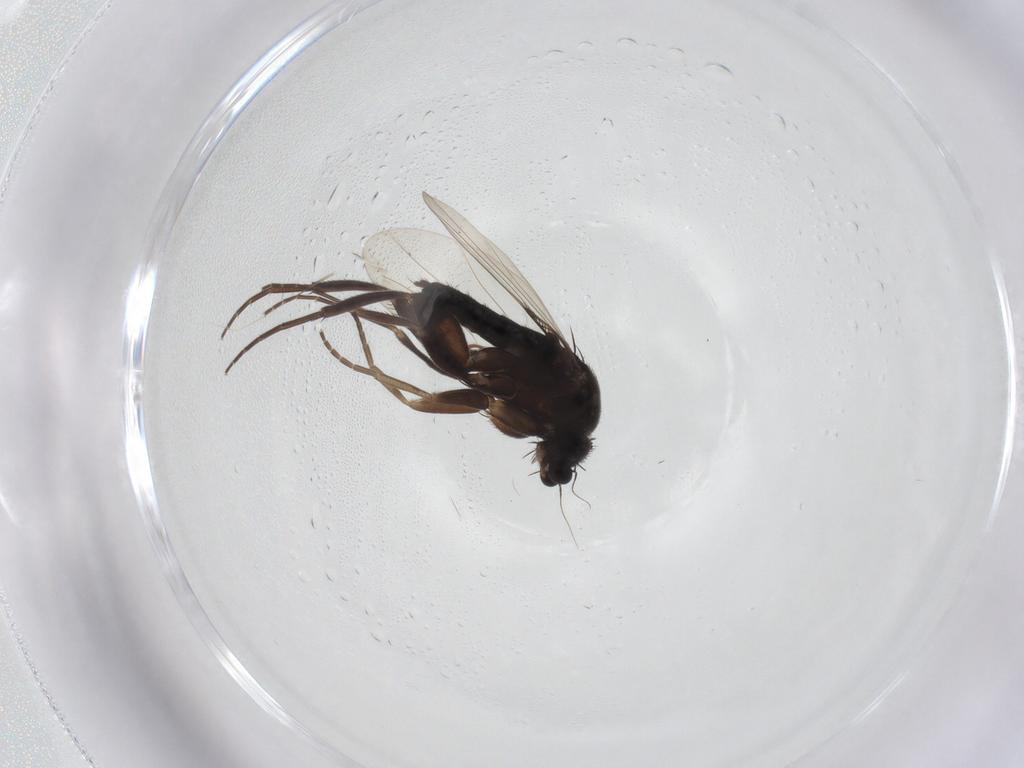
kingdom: Animalia
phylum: Arthropoda
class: Insecta
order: Diptera
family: Phoridae
